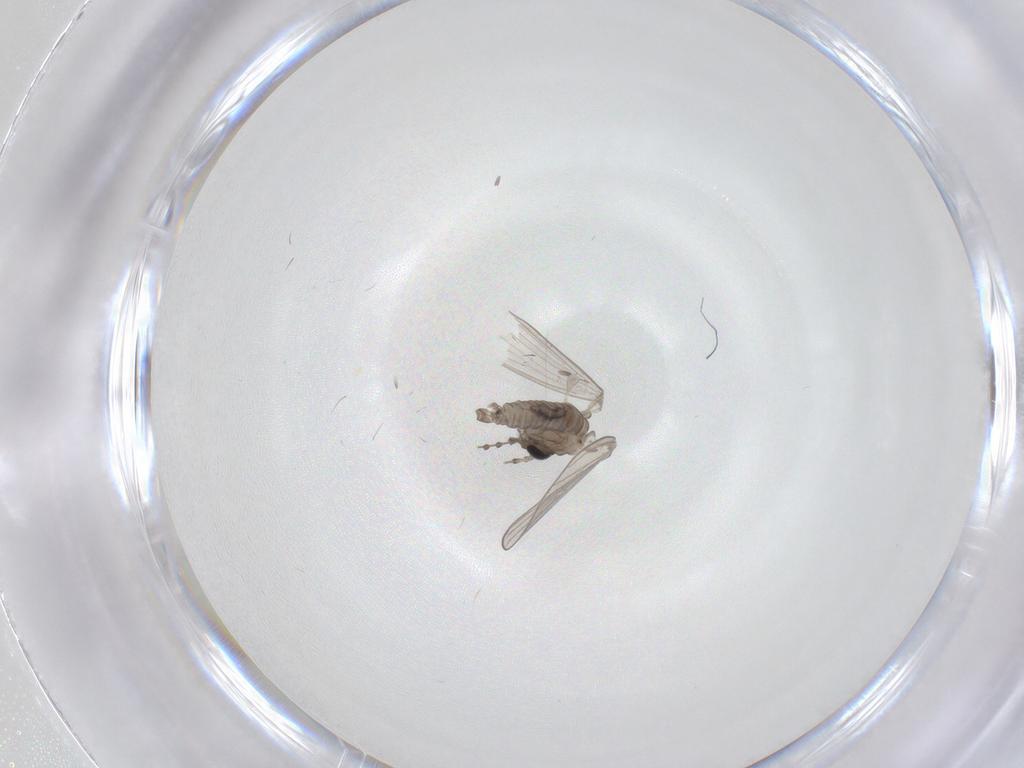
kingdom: Animalia
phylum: Arthropoda
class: Insecta
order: Diptera
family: Psychodidae
